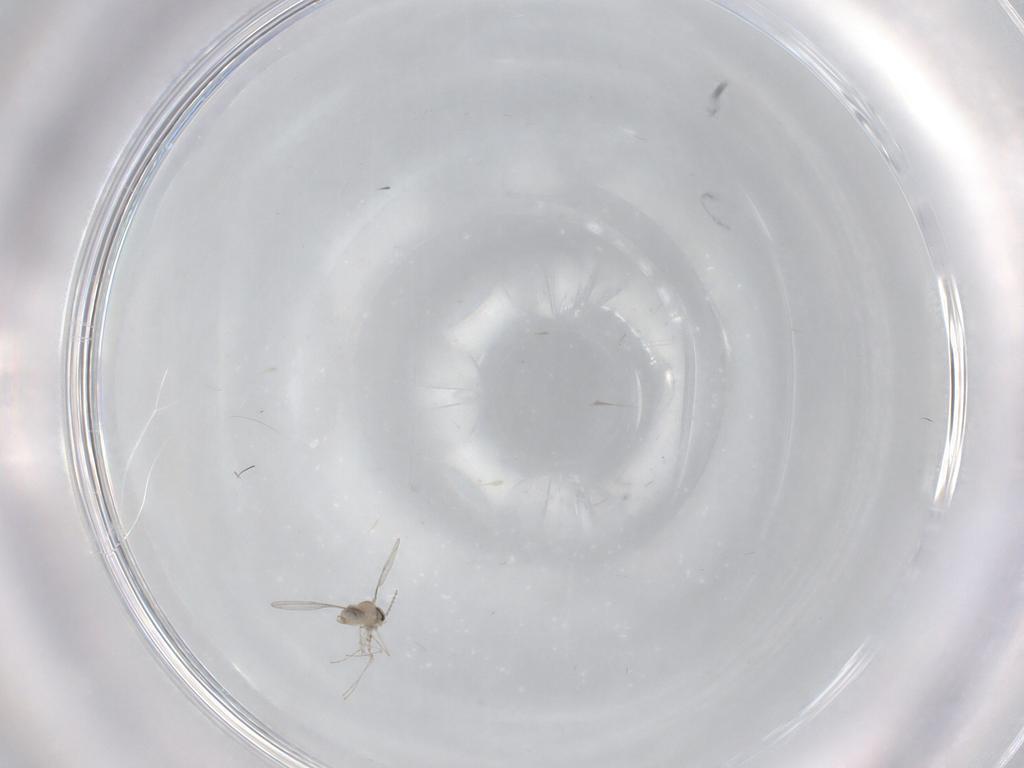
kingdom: Animalia
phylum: Arthropoda
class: Insecta
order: Diptera
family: Cecidomyiidae
